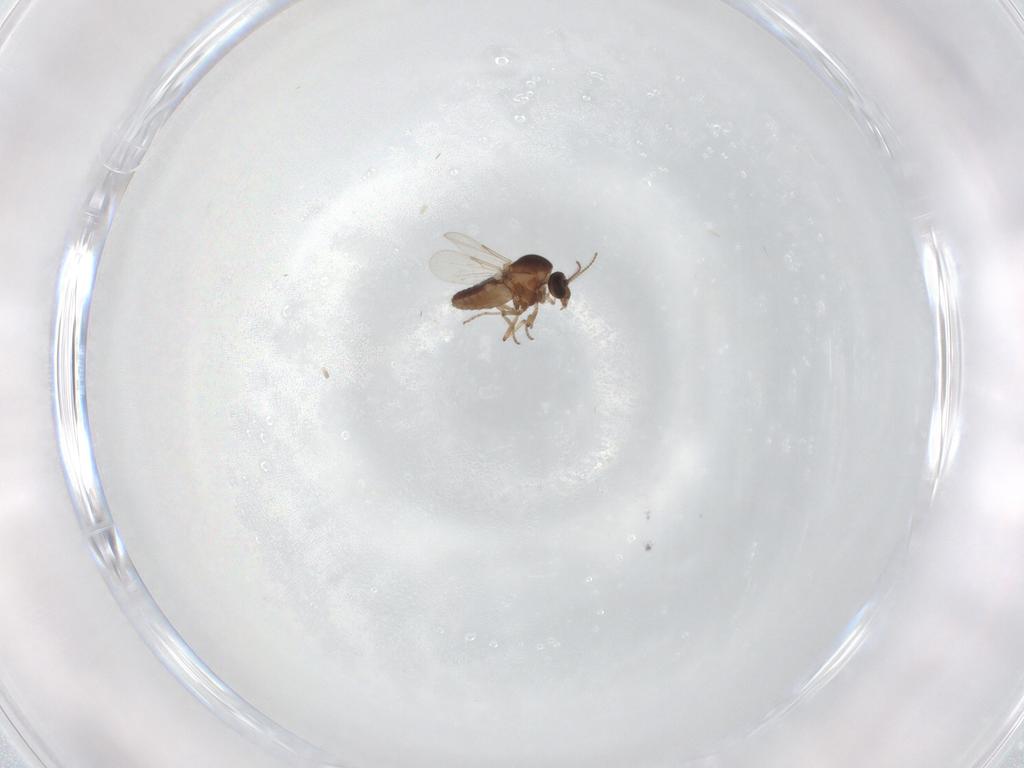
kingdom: Animalia
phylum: Arthropoda
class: Insecta
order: Diptera
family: Ceratopogonidae
